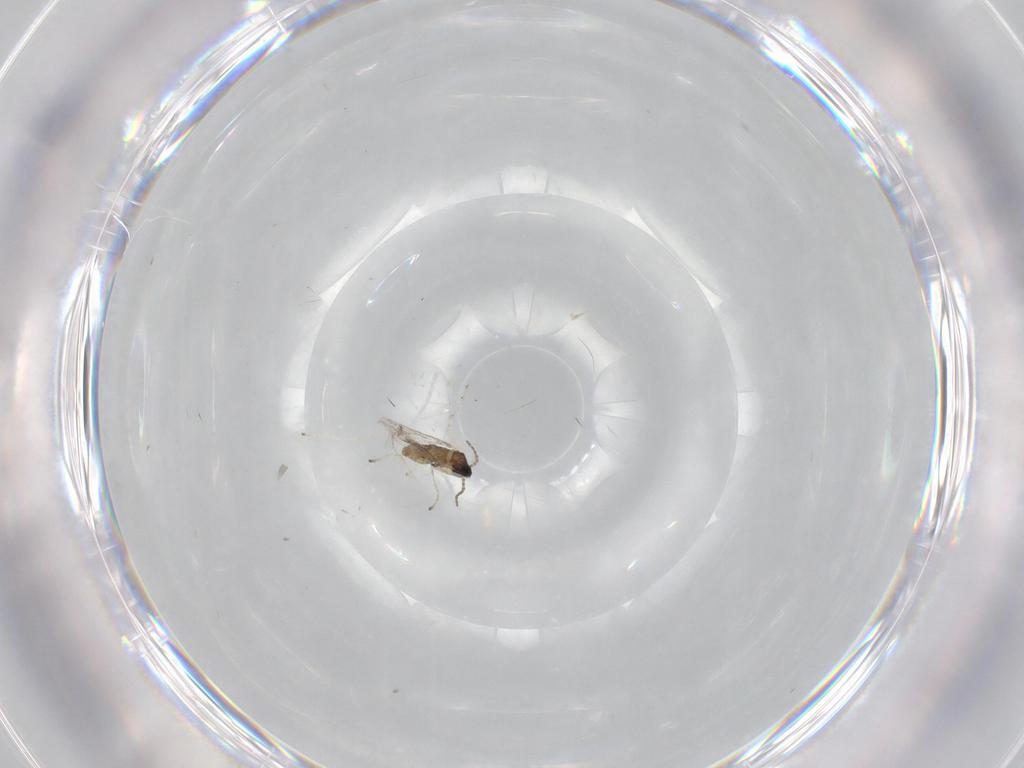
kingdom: Animalia
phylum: Arthropoda
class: Insecta
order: Diptera
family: Cecidomyiidae
